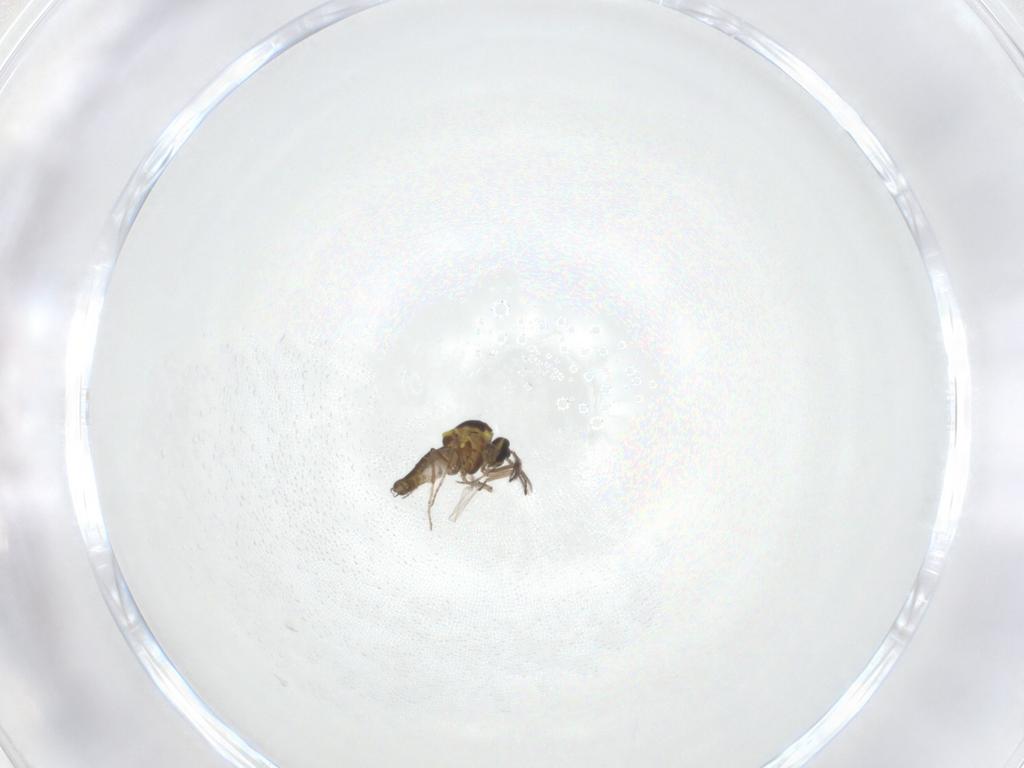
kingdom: Animalia
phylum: Arthropoda
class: Insecta
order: Diptera
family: Ceratopogonidae
